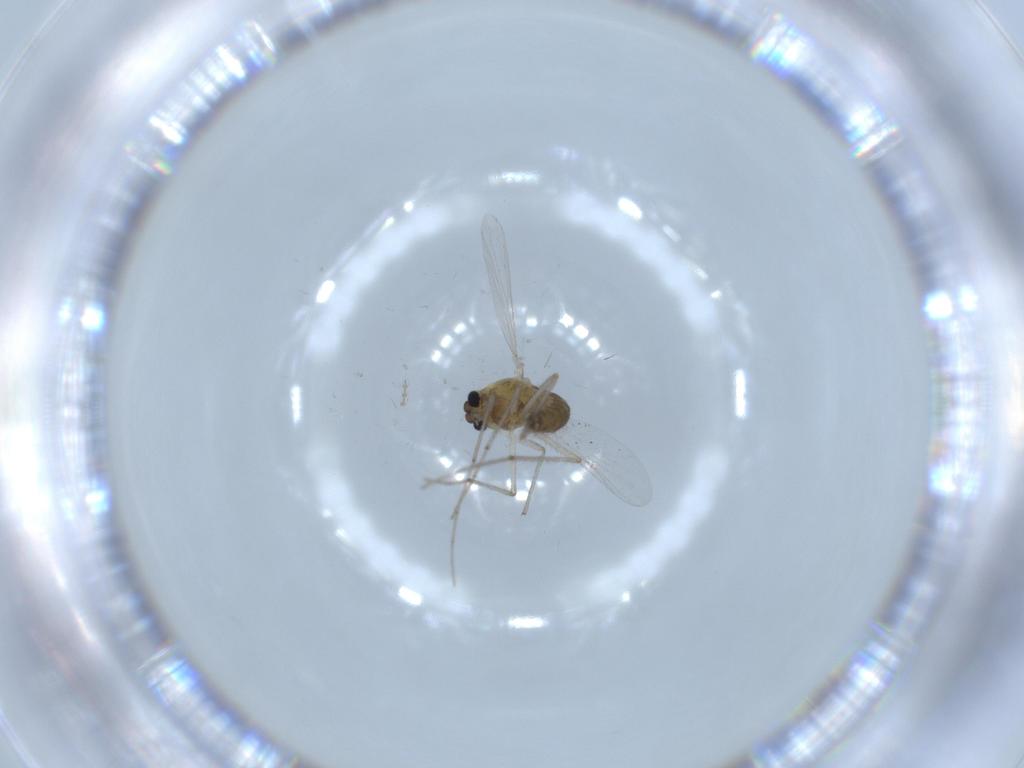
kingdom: Animalia
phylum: Arthropoda
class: Insecta
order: Diptera
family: Chironomidae
